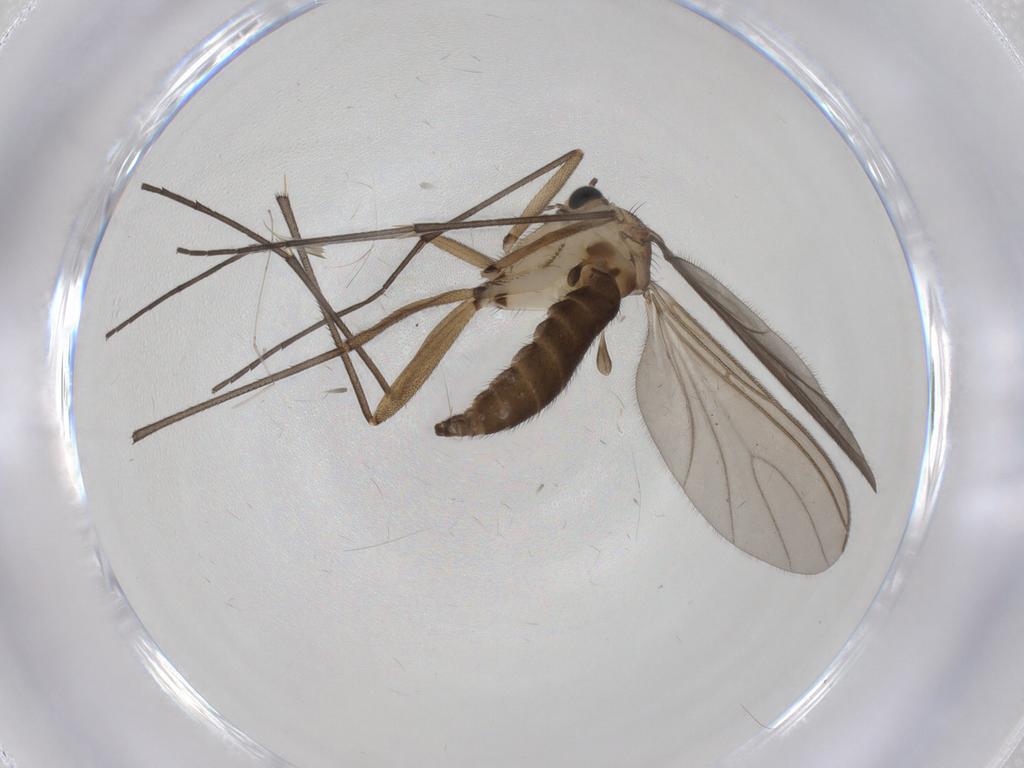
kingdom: Animalia
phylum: Arthropoda
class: Insecta
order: Diptera
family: Sciaridae
